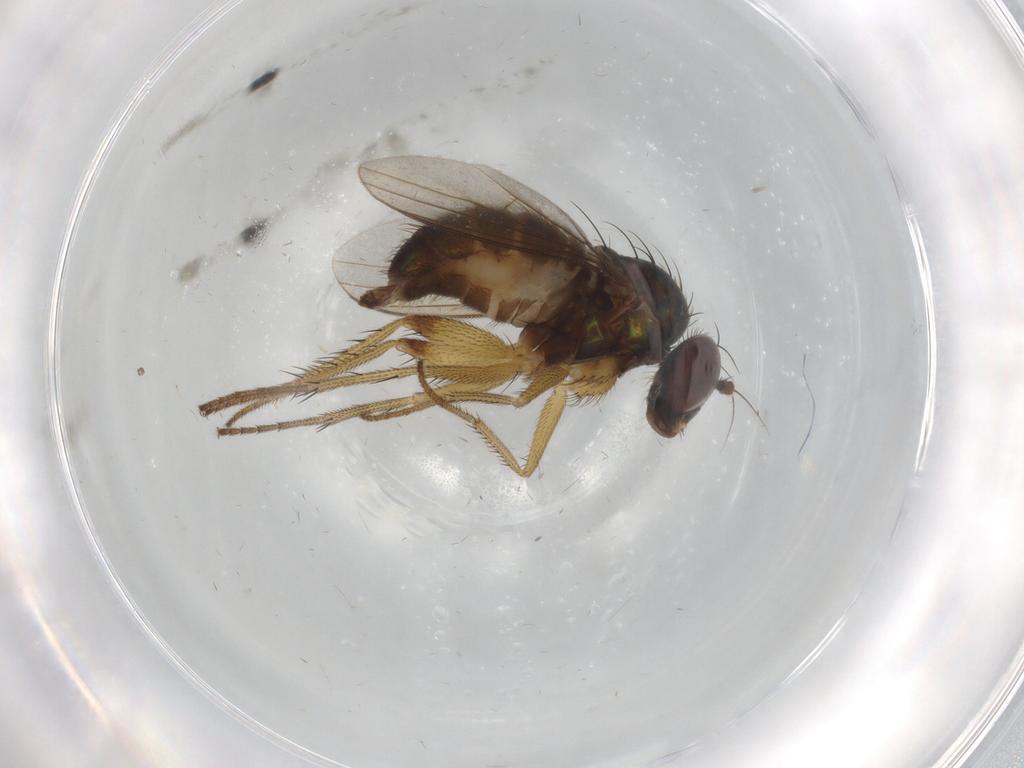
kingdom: Animalia
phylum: Arthropoda
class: Insecta
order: Diptera
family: Dolichopodidae
